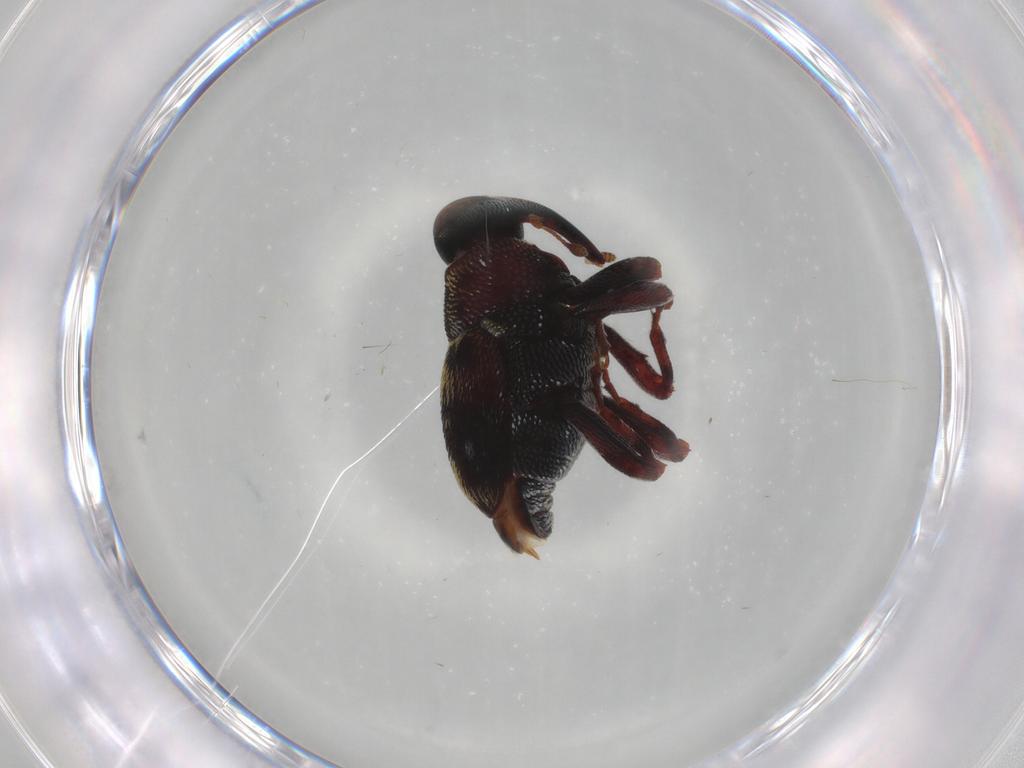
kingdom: Animalia
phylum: Arthropoda
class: Insecta
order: Coleoptera
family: Curculionidae
